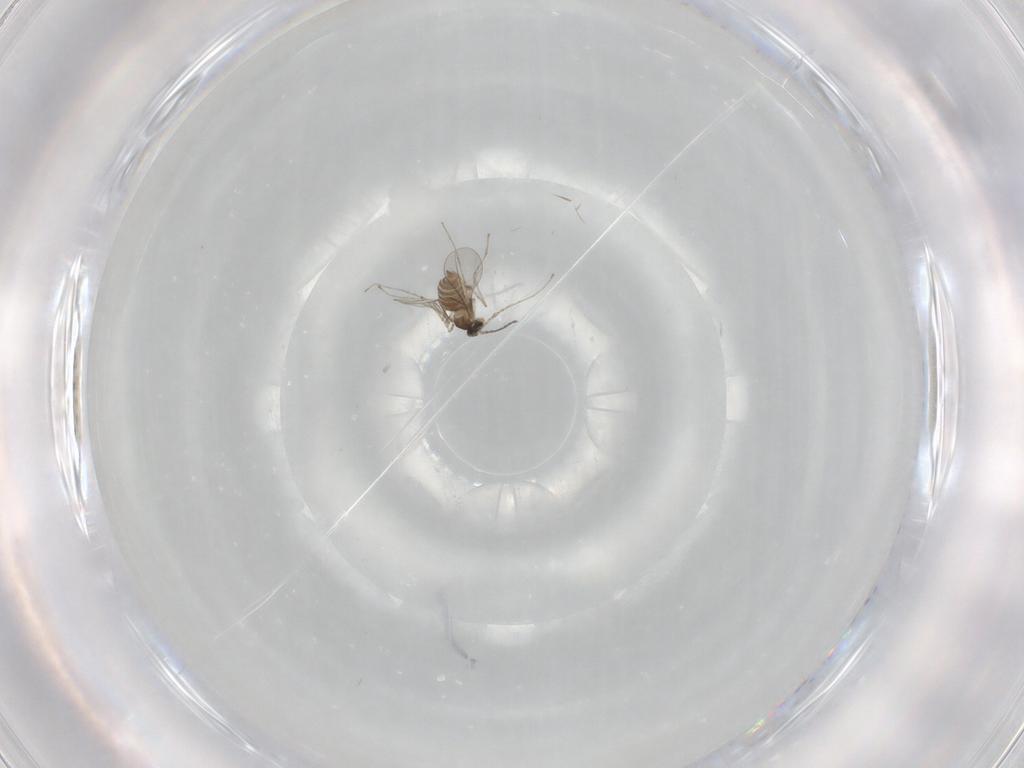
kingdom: Animalia
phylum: Arthropoda
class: Insecta
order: Diptera
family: Cecidomyiidae
